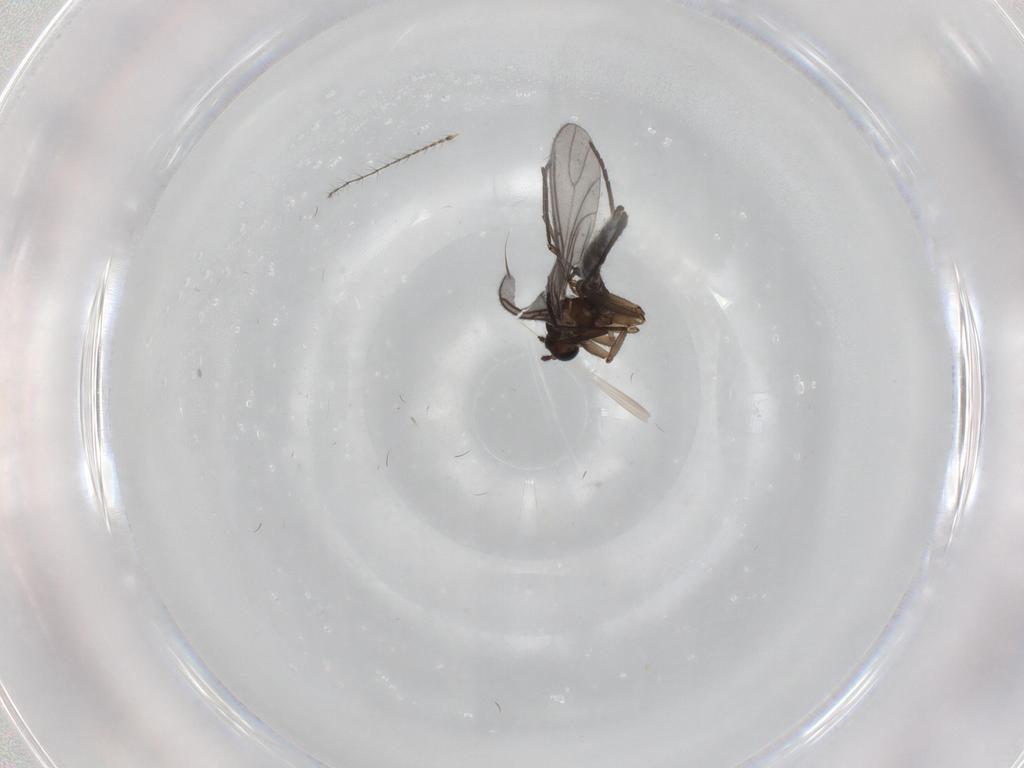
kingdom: Animalia
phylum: Arthropoda
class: Insecta
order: Diptera
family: Sciaridae
